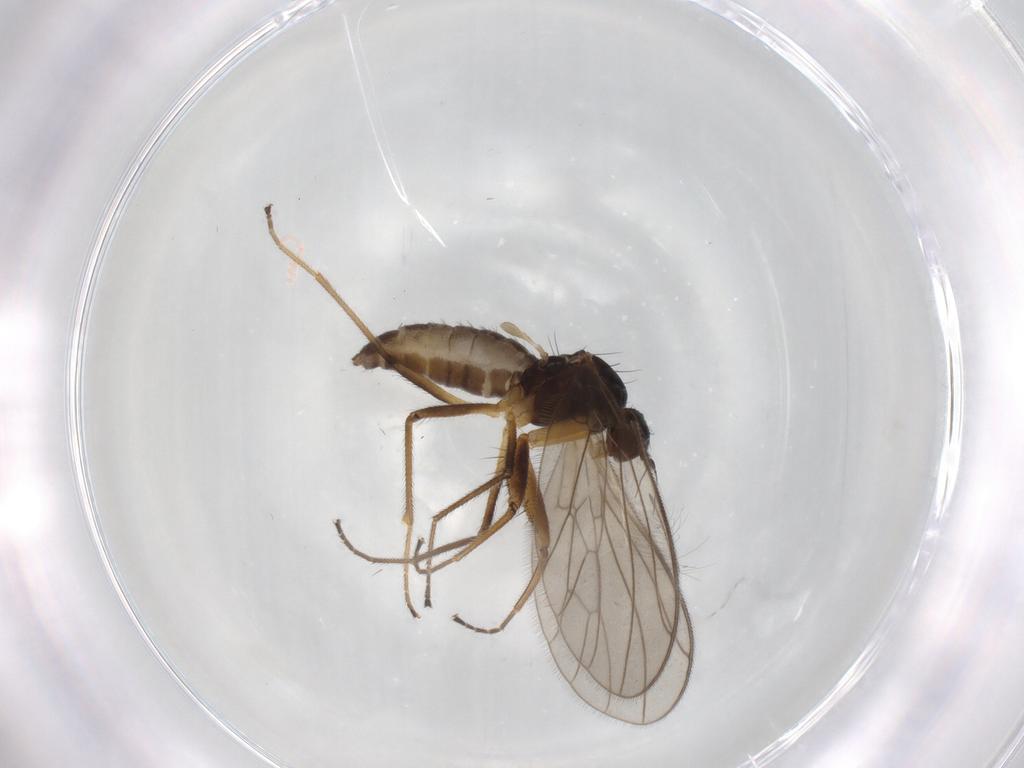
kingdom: Animalia
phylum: Arthropoda
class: Insecta
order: Diptera
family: Empididae
